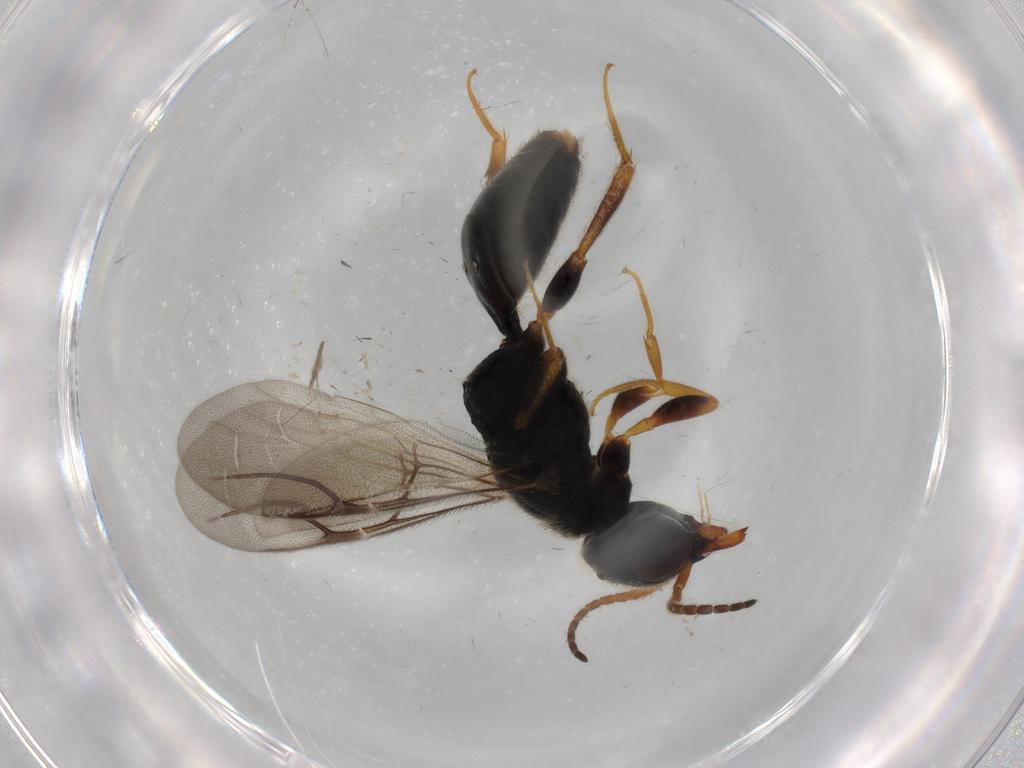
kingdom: Animalia
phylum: Arthropoda
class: Insecta
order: Hymenoptera
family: Bethylidae
